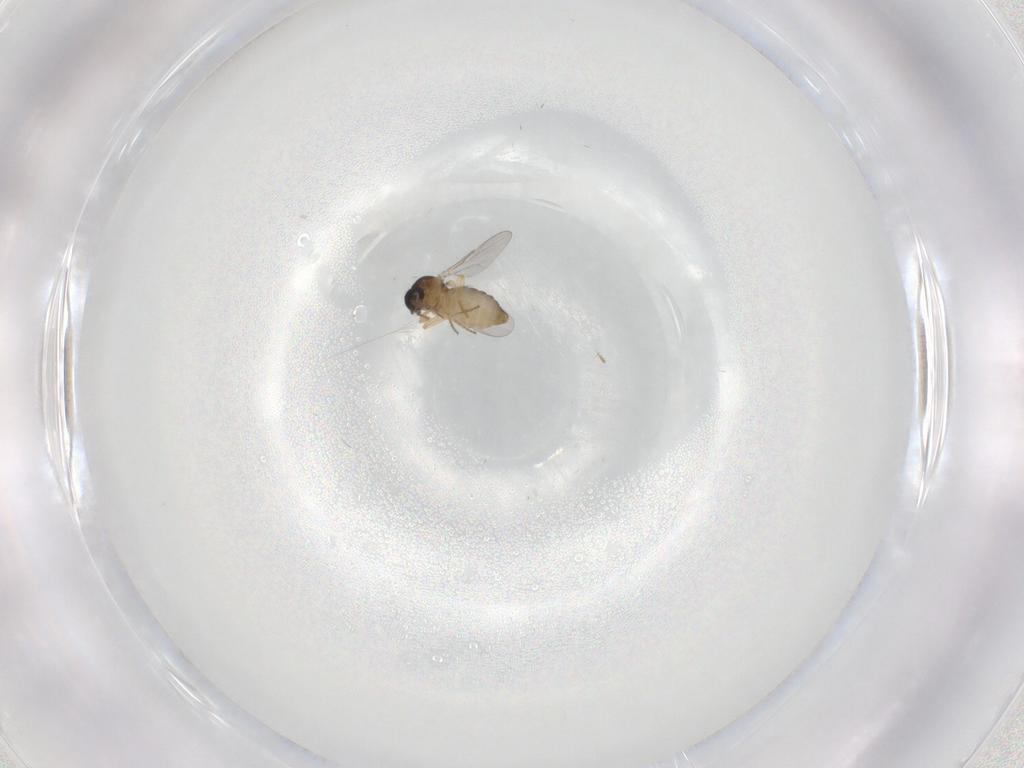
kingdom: Animalia
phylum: Arthropoda
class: Insecta
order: Diptera
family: Ceratopogonidae
